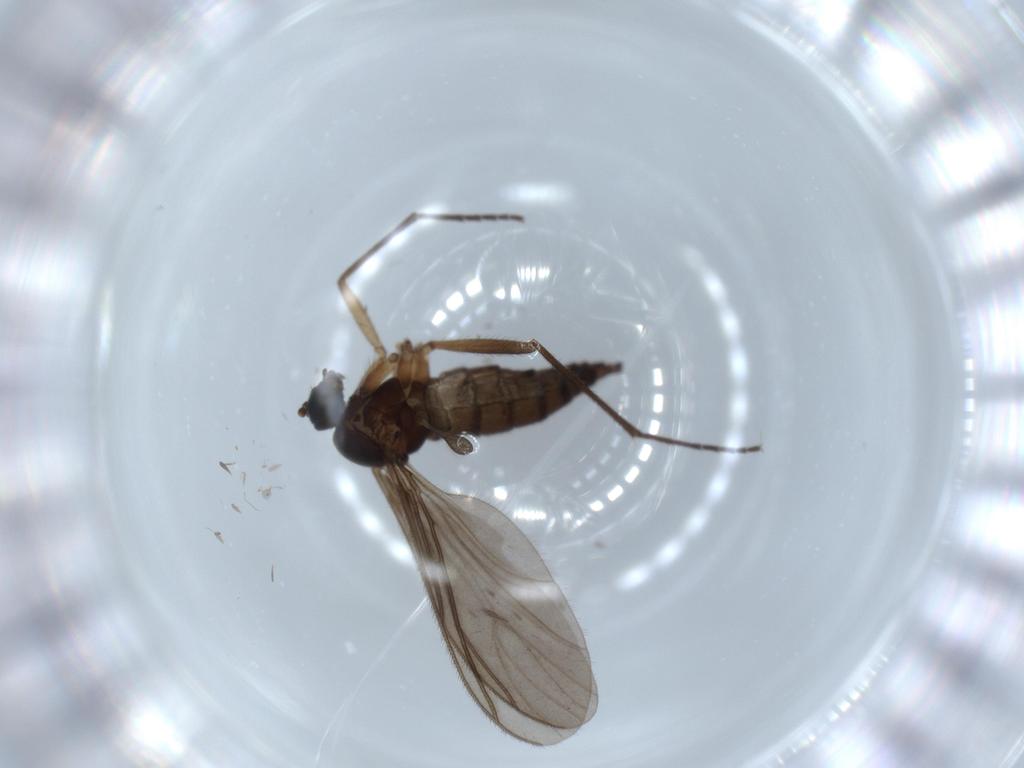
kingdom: Animalia
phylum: Arthropoda
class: Insecta
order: Diptera
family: Sciaridae
